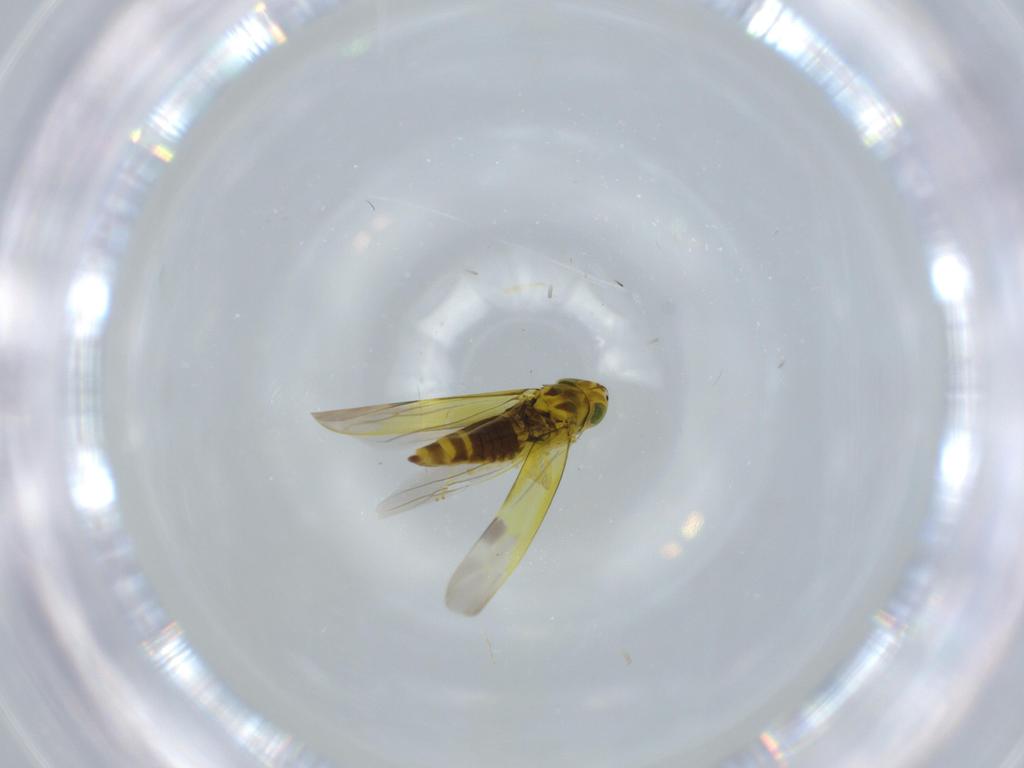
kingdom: Animalia
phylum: Arthropoda
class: Insecta
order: Hemiptera
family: Cicadellidae
